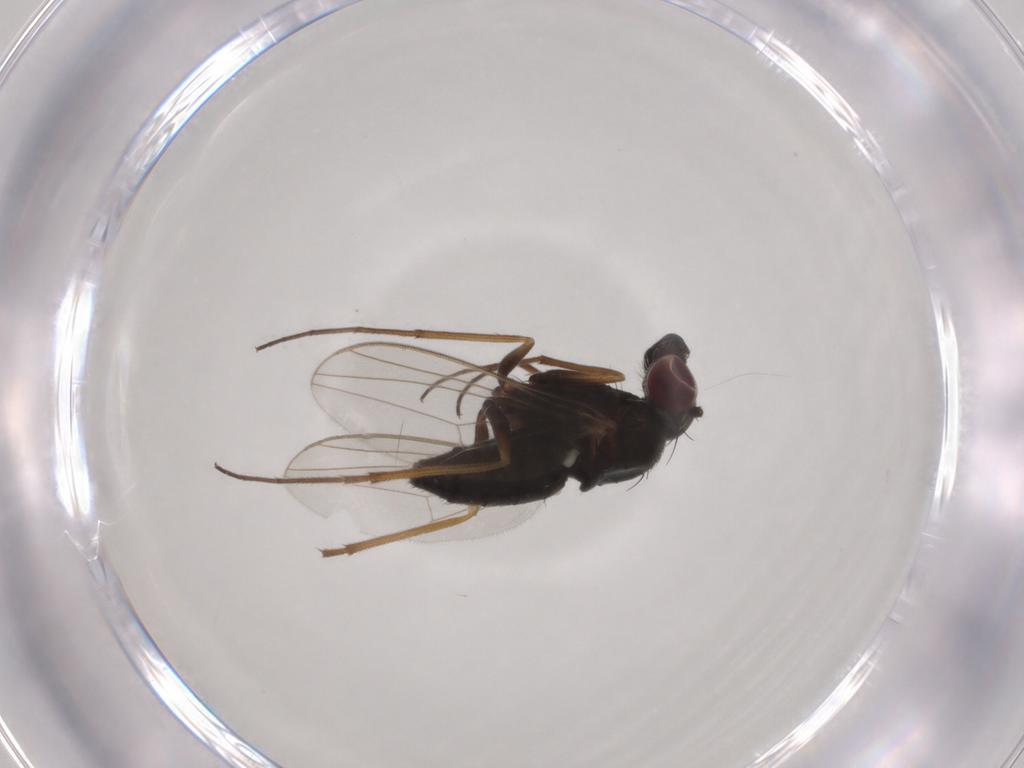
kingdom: Animalia
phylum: Arthropoda
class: Insecta
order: Diptera
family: Dolichopodidae
